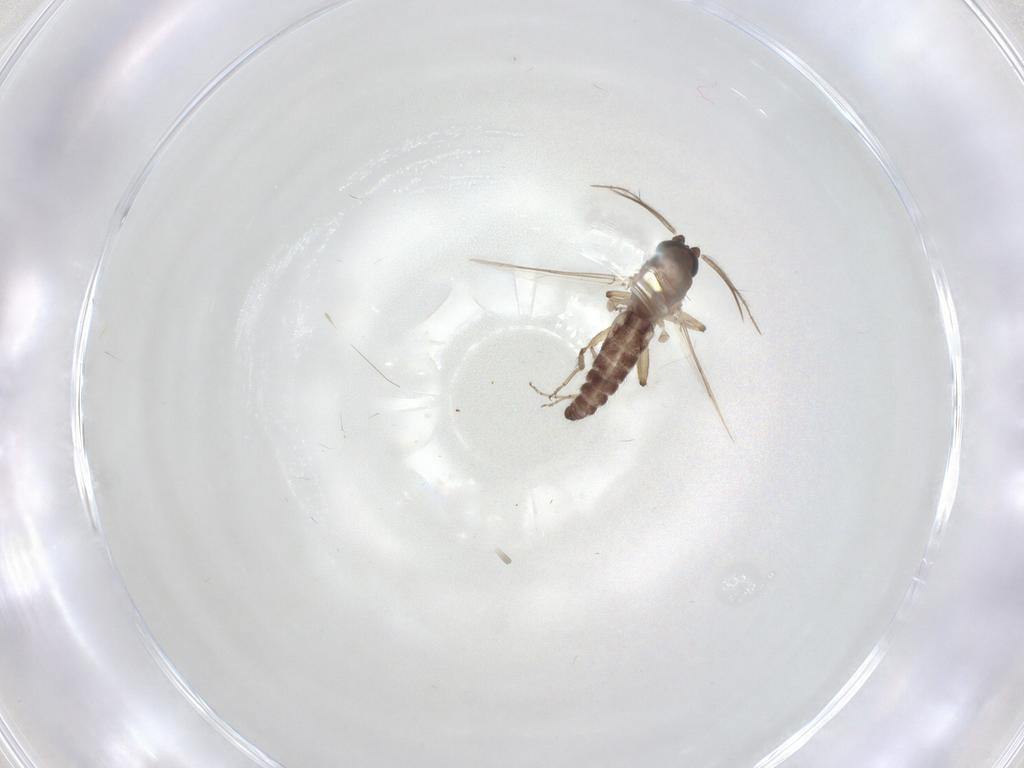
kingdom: Animalia
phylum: Arthropoda
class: Insecta
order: Diptera
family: Ceratopogonidae
